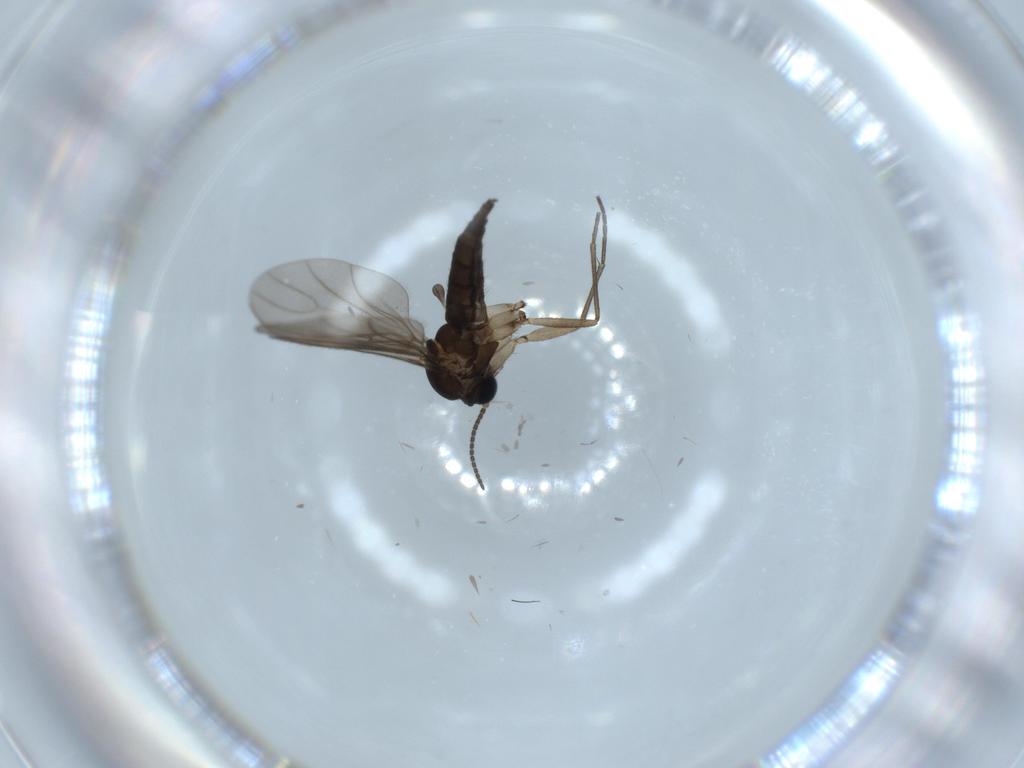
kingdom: Animalia
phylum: Arthropoda
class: Insecta
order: Diptera
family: Sciaridae
